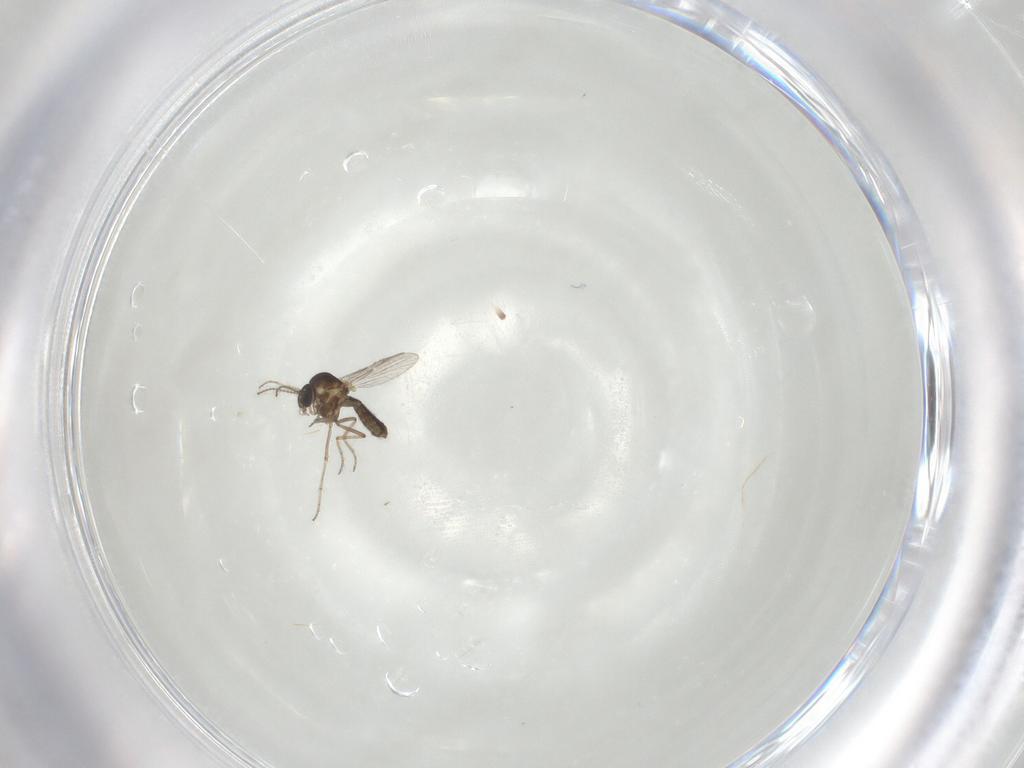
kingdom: Animalia
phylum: Arthropoda
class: Insecta
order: Diptera
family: Ceratopogonidae
